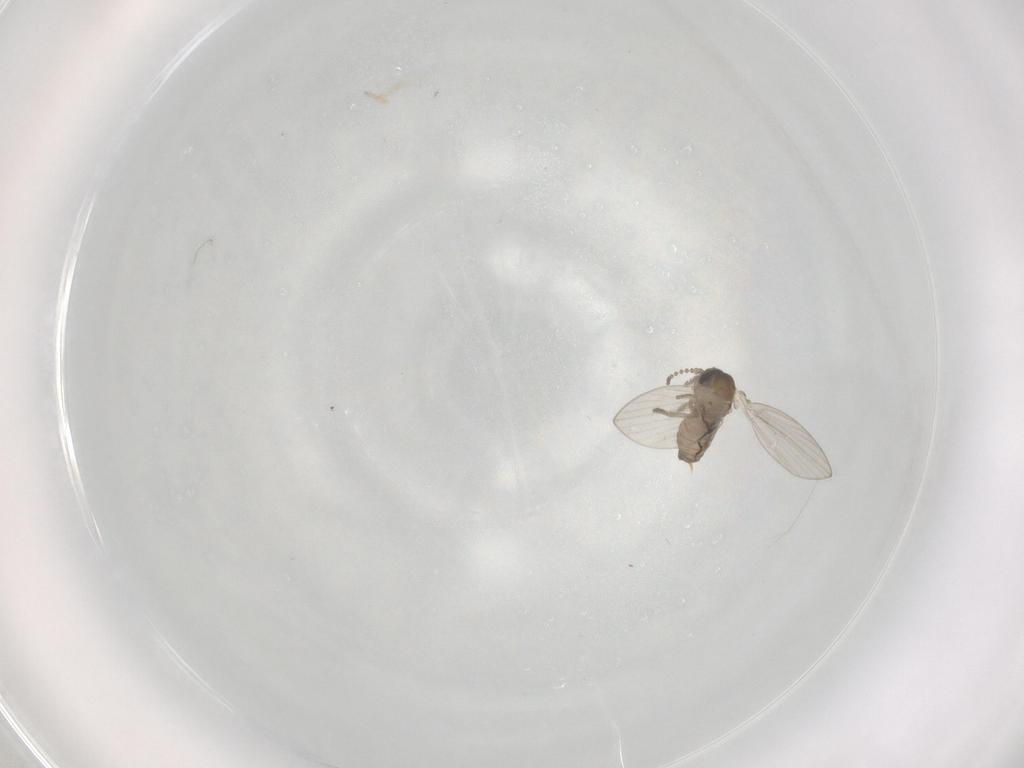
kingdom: Animalia
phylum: Arthropoda
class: Insecta
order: Diptera
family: Psychodidae
